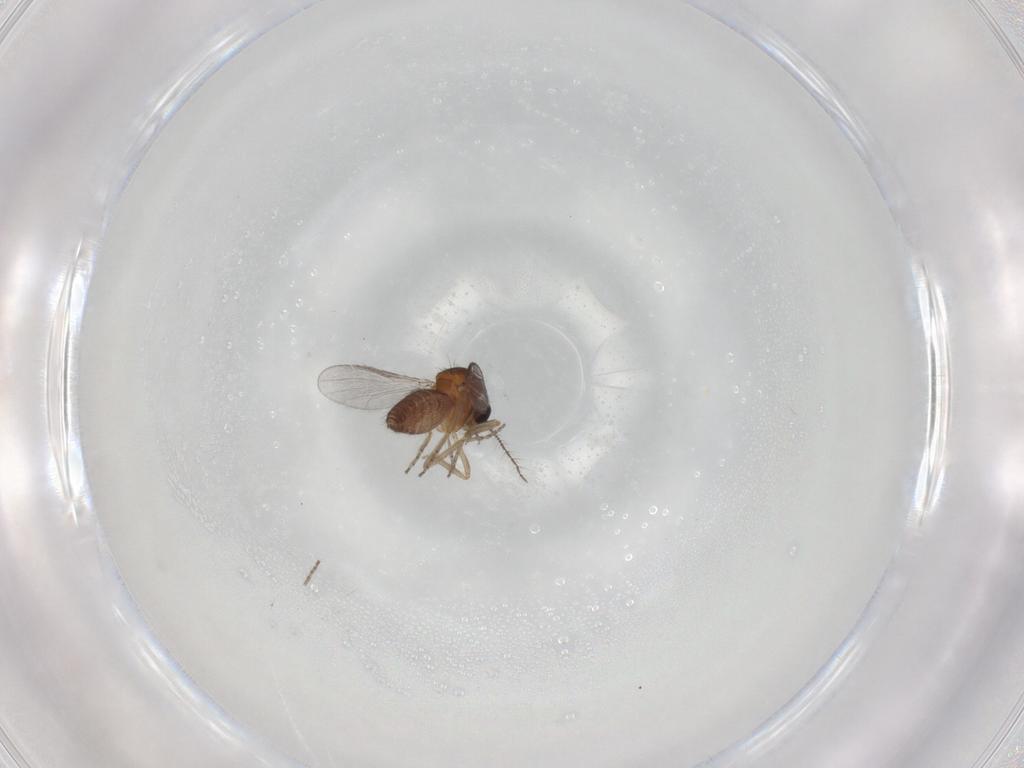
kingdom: Animalia
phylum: Arthropoda
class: Insecta
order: Diptera
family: Ceratopogonidae
